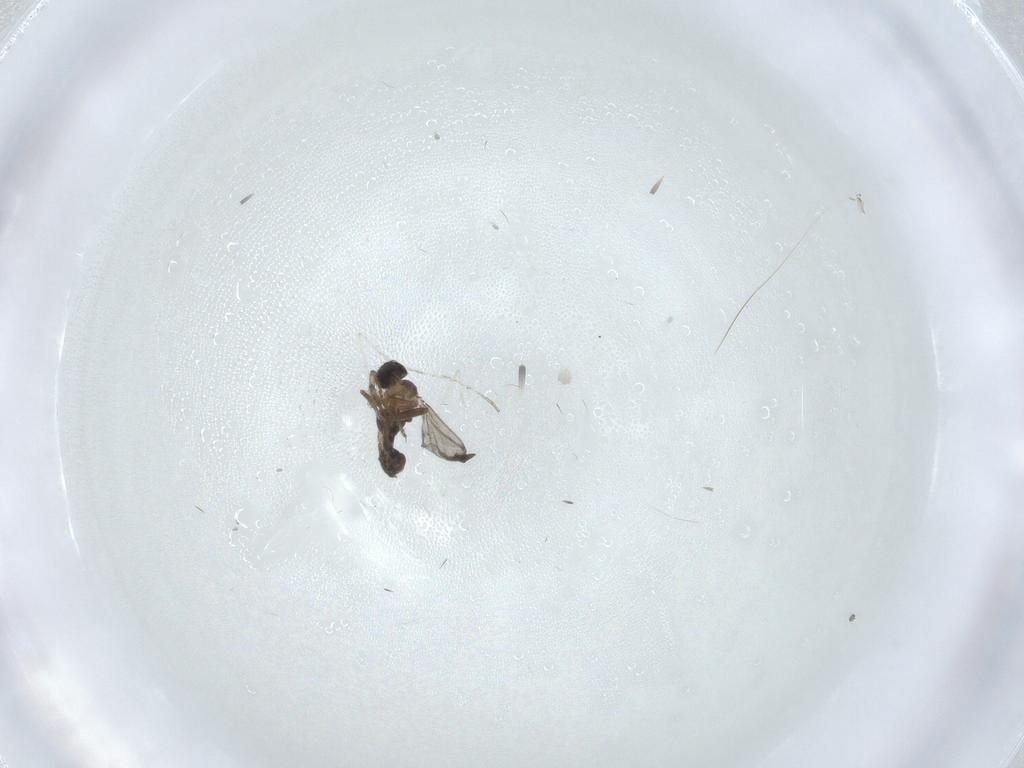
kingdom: Animalia
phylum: Arthropoda
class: Insecta
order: Diptera
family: Cecidomyiidae
